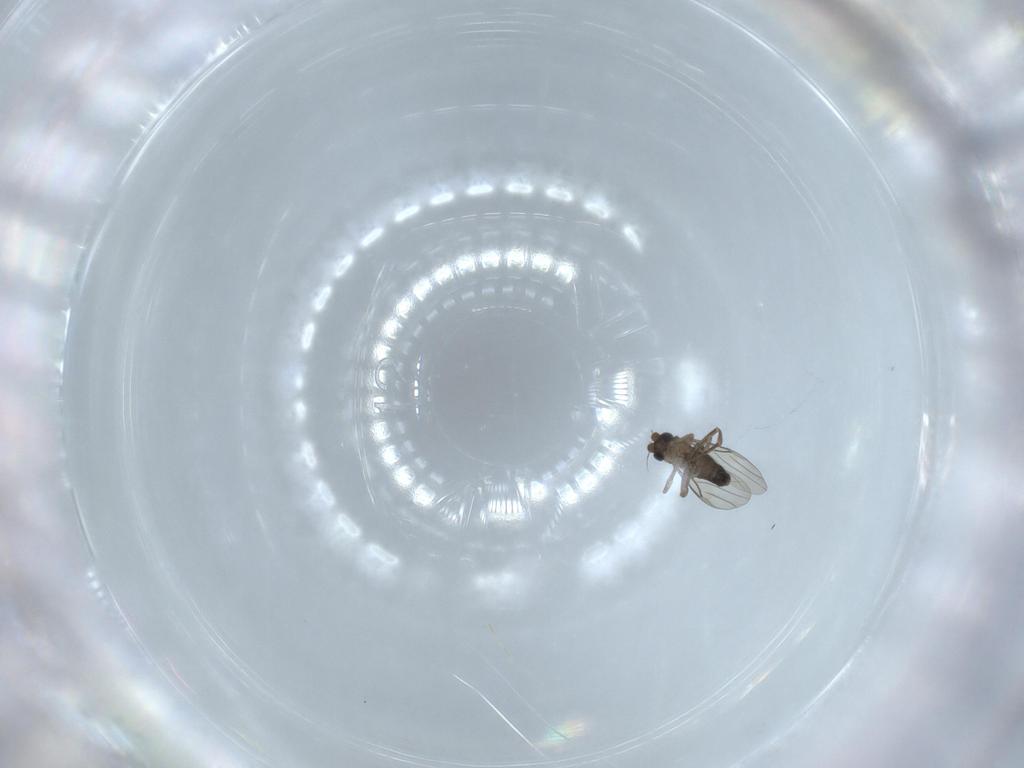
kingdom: Animalia
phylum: Arthropoda
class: Insecta
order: Diptera
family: Phoridae
